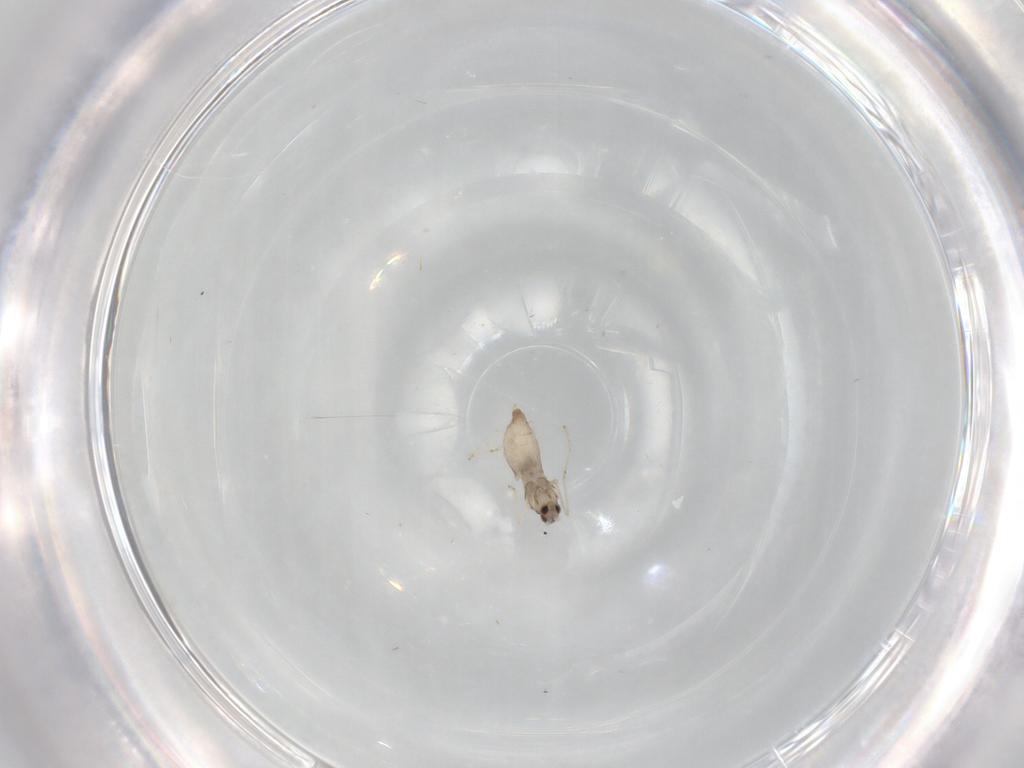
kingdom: Animalia
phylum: Arthropoda
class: Insecta
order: Diptera
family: Cecidomyiidae
